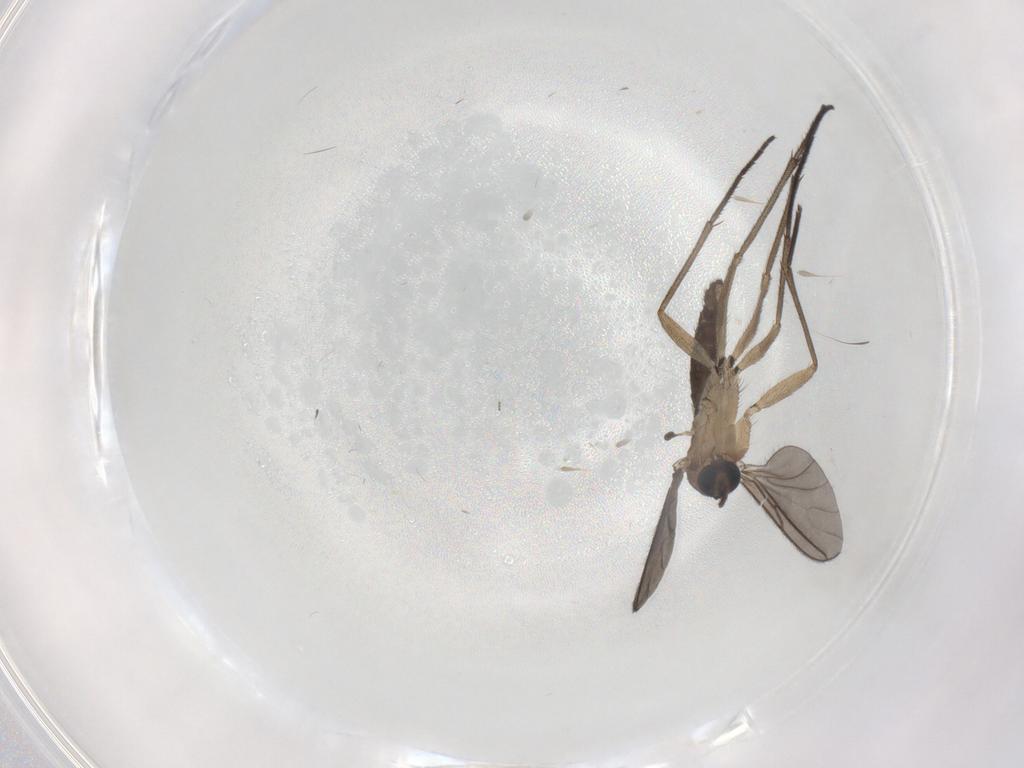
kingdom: Animalia
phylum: Arthropoda
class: Insecta
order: Diptera
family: Sciaridae
